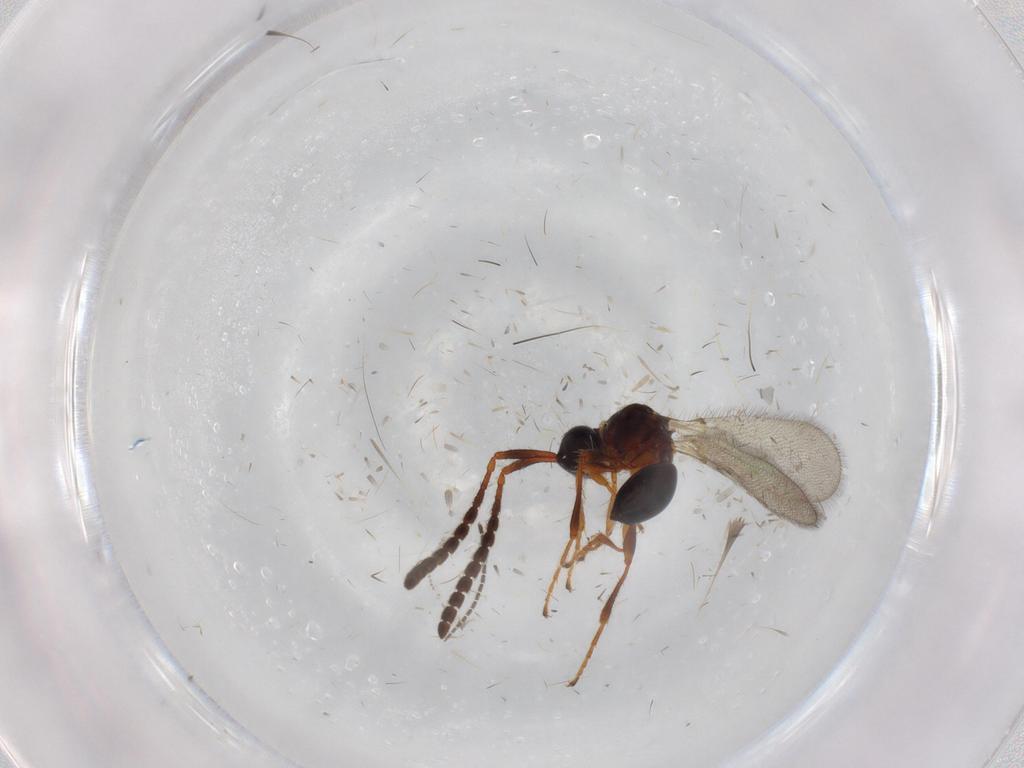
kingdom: Animalia
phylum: Arthropoda
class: Insecta
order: Hymenoptera
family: Diapriidae
